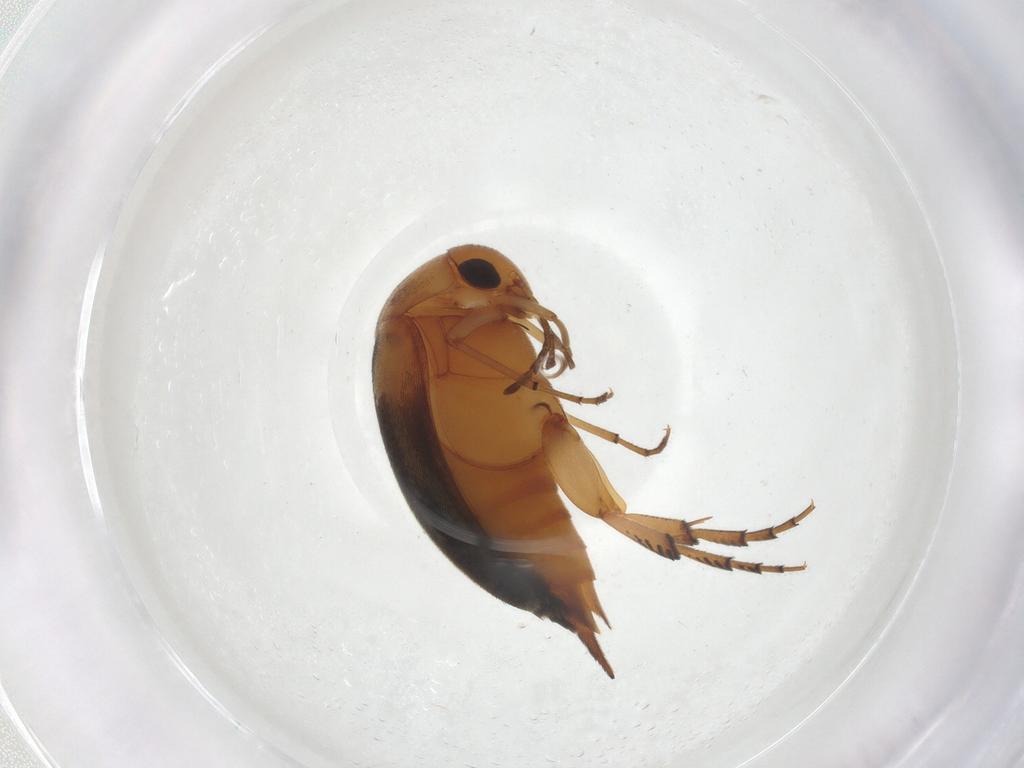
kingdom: Animalia
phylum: Arthropoda
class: Insecta
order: Coleoptera
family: Mordellidae
